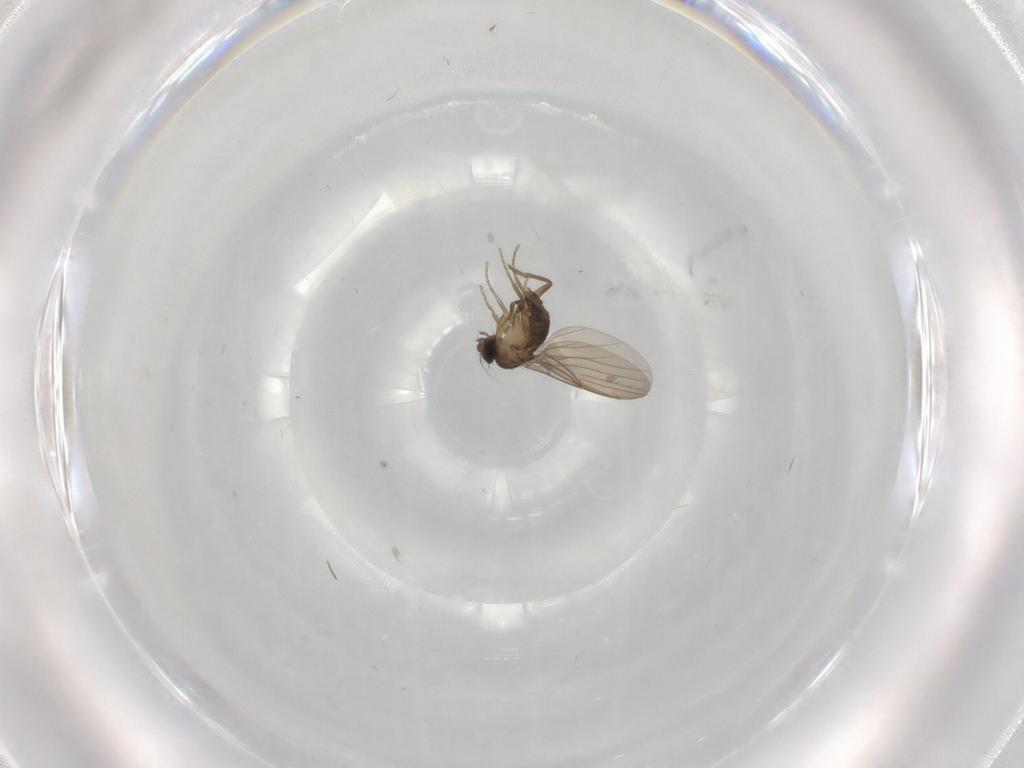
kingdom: Animalia
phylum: Arthropoda
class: Insecta
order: Diptera
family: Phoridae
